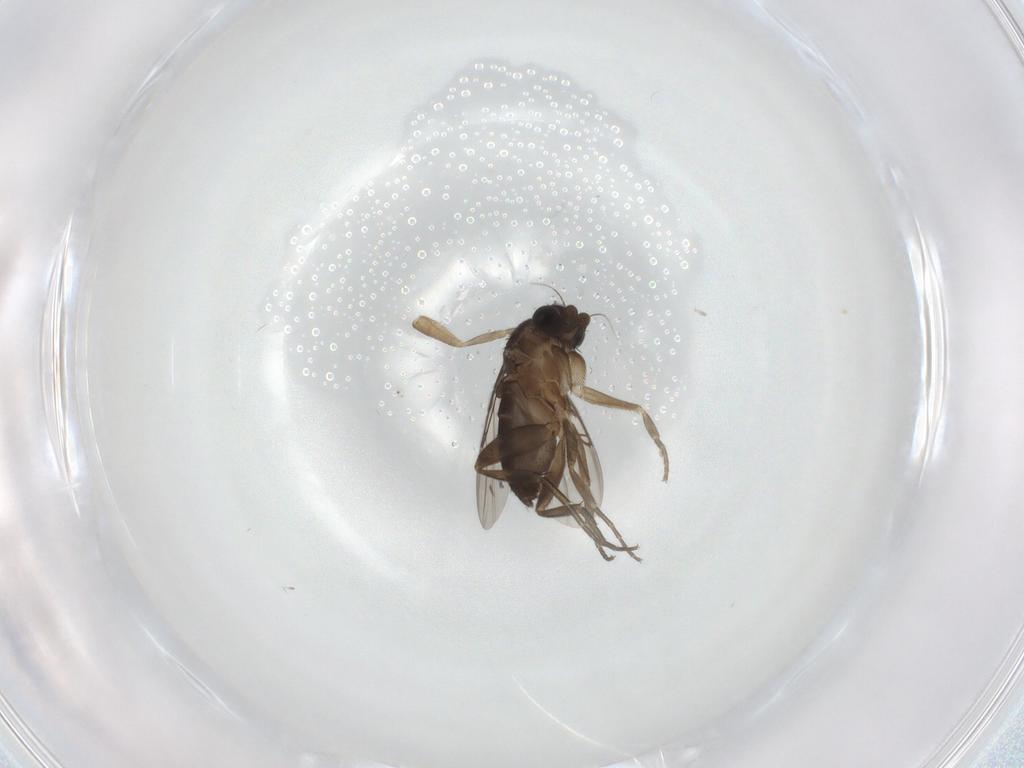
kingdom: Animalia
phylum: Arthropoda
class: Insecta
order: Diptera
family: Phoridae
